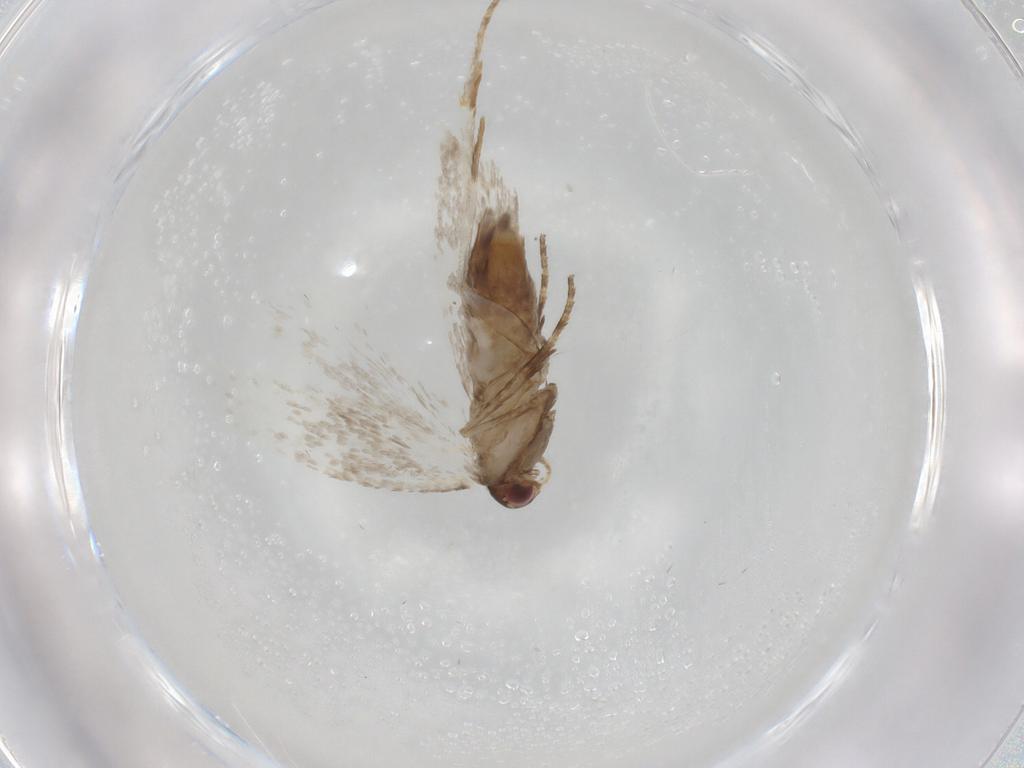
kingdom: Animalia
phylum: Arthropoda
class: Insecta
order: Lepidoptera
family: Gelechiidae
